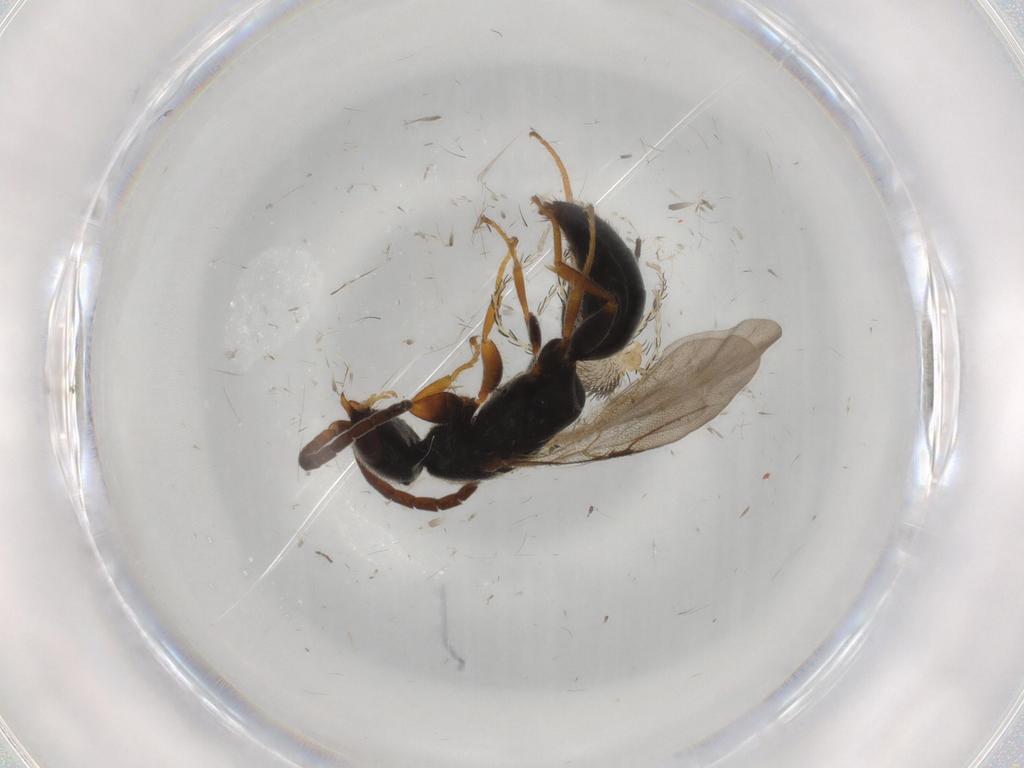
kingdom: Animalia
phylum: Arthropoda
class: Insecta
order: Hymenoptera
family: Bethylidae
